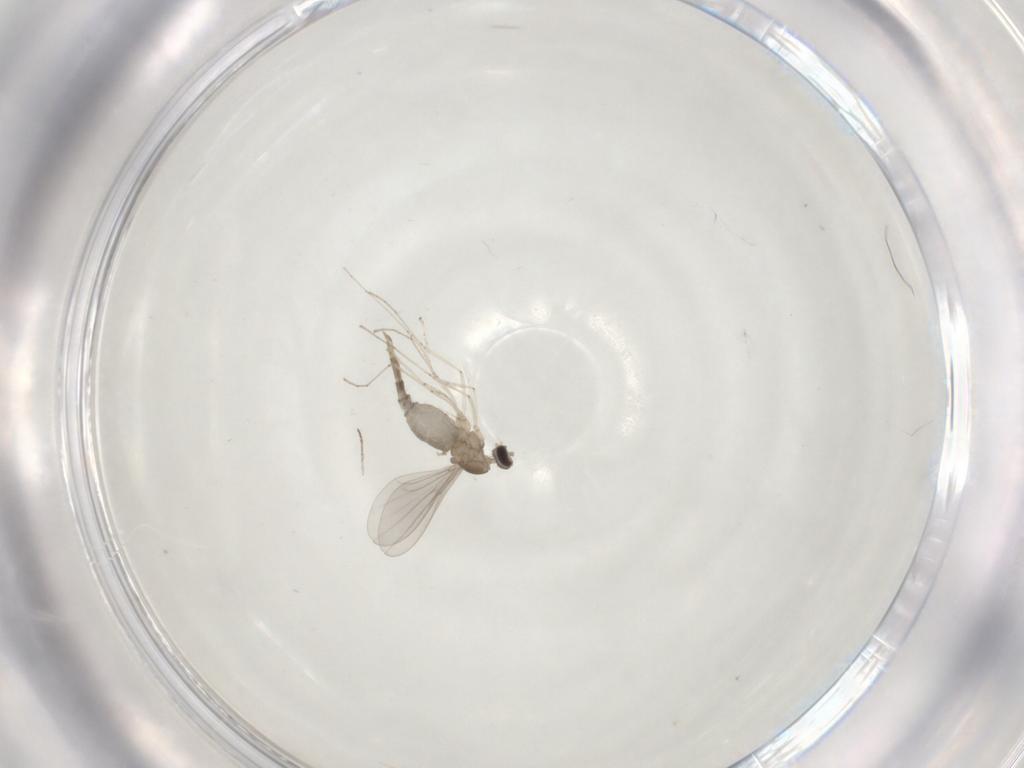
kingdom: Animalia
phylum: Arthropoda
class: Insecta
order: Diptera
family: Cecidomyiidae
